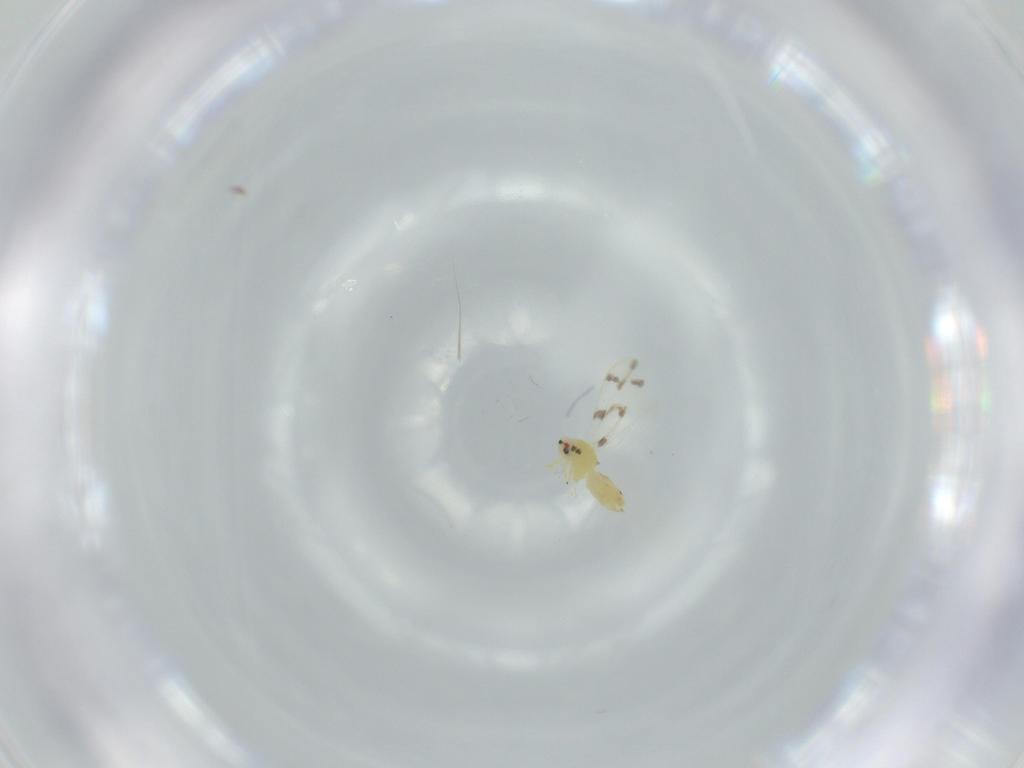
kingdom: Animalia
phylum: Arthropoda
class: Insecta
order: Hemiptera
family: Aleyrodidae
